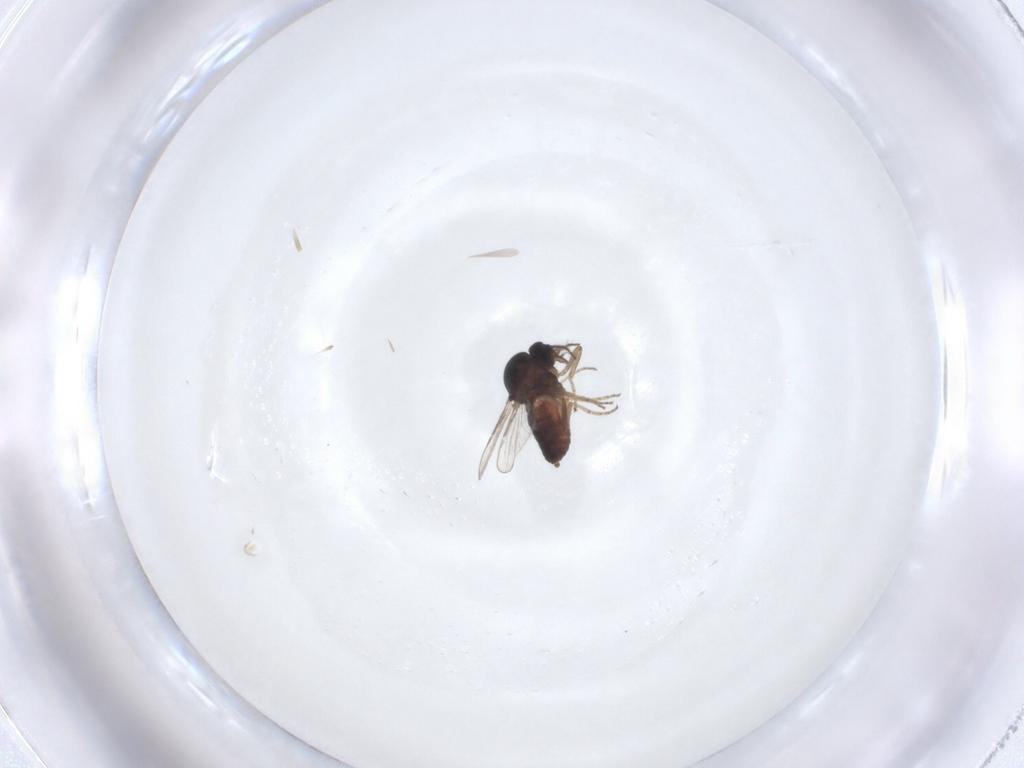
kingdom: Animalia
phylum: Arthropoda
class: Insecta
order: Diptera
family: Ceratopogonidae
